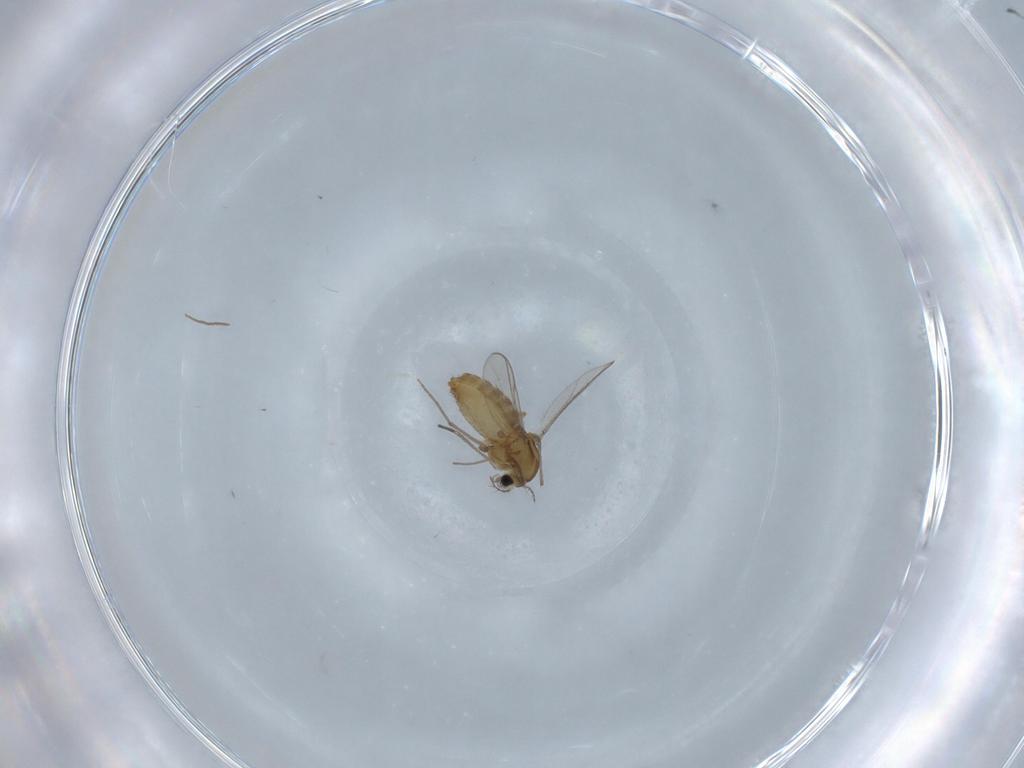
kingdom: Animalia
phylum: Arthropoda
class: Insecta
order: Diptera
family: Chironomidae
